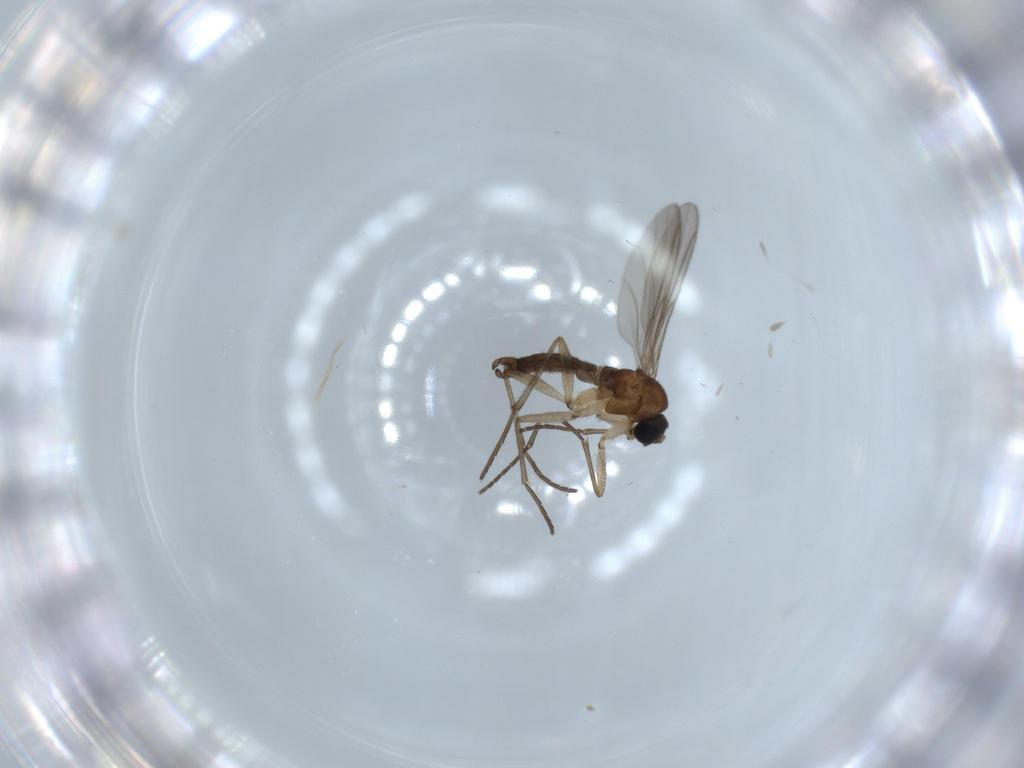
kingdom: Animalia
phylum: Arthropoda
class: Insecta
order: Diptera
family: Sciaridae
